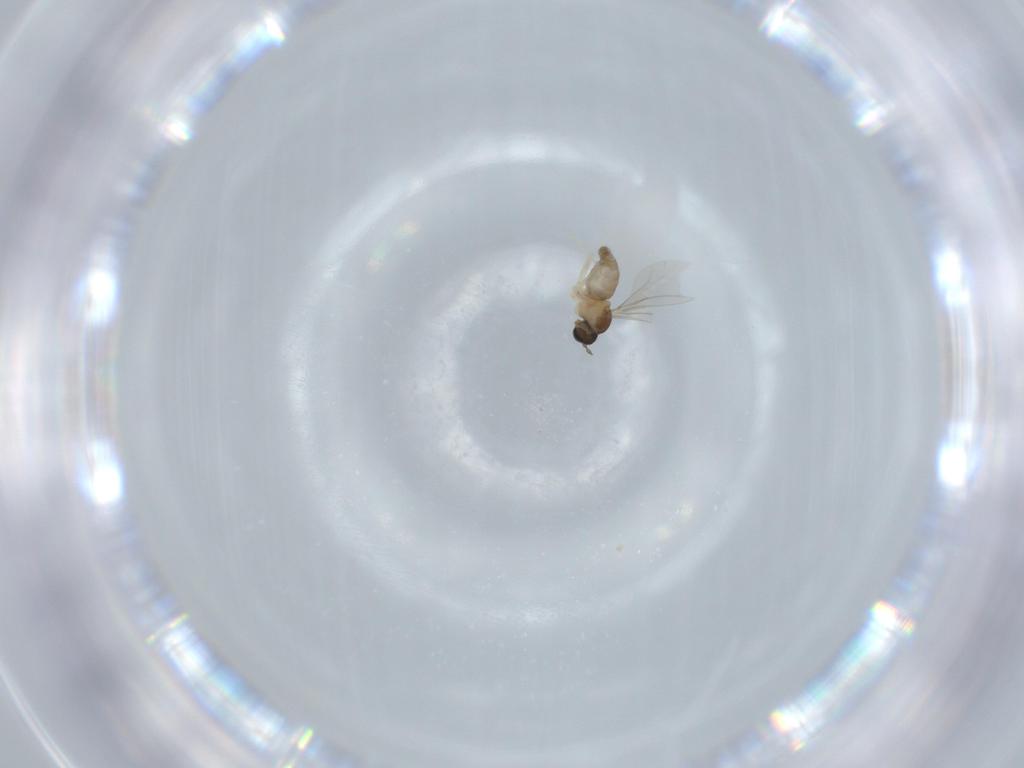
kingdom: Animalia
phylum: Arthropoda
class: Insecta
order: Diptera
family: Cecidomyiidae
